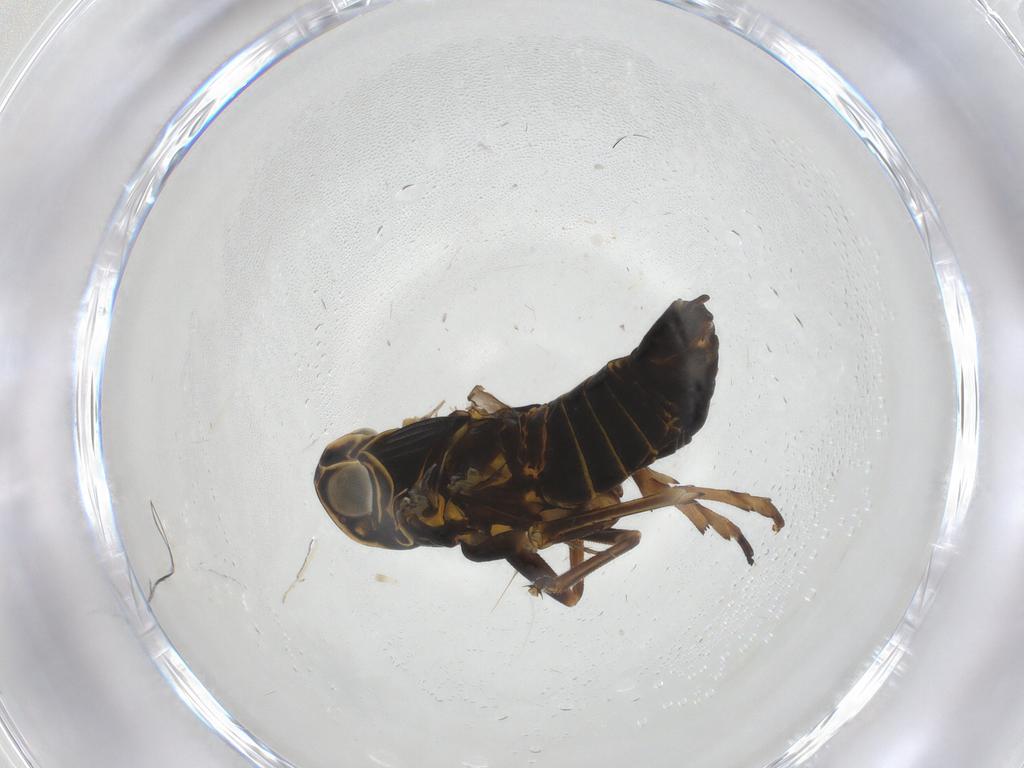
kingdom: Animalia
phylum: Arthropoda
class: Insecta
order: Hemiptera
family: Cixiidae
